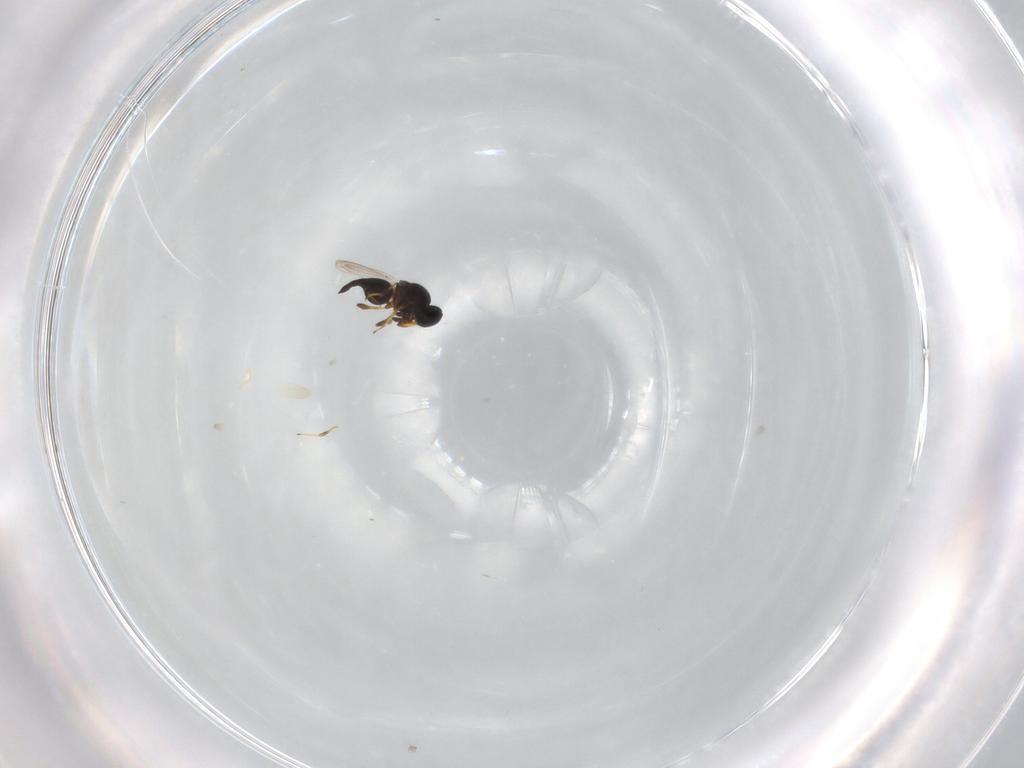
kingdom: Animalia
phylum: Arthropoda
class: Insecta
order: Hymenoptera
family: Platygastridae
